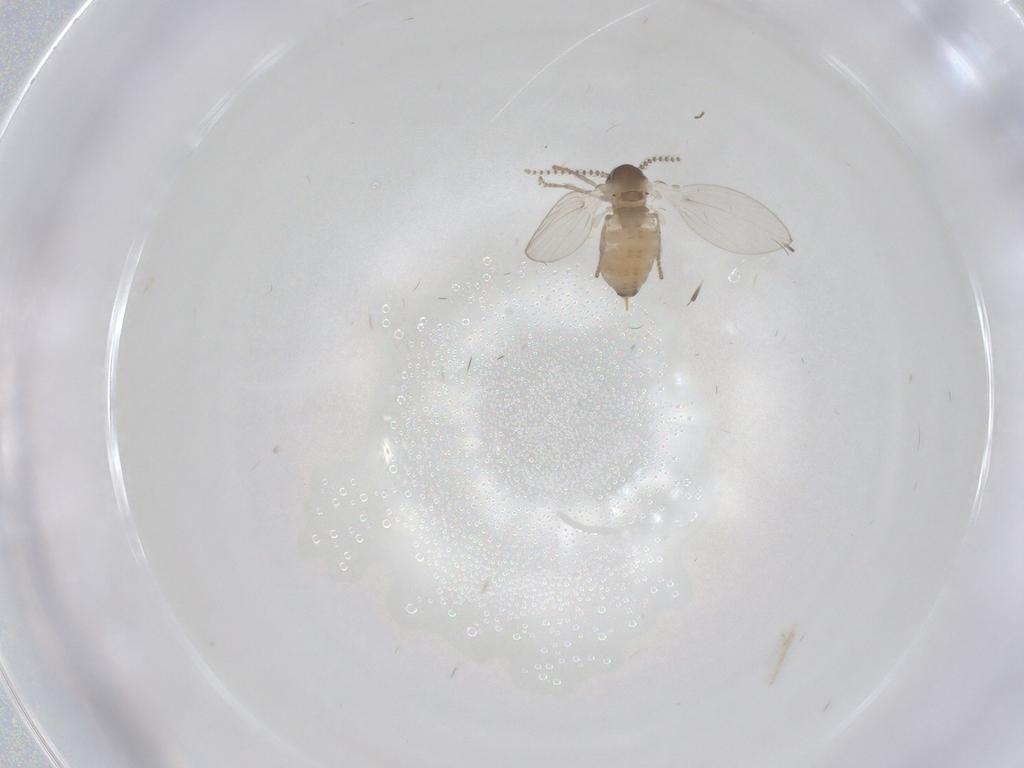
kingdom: Animalia
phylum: Arthropoda
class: Insecta
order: Diptera
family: Psychodidae
